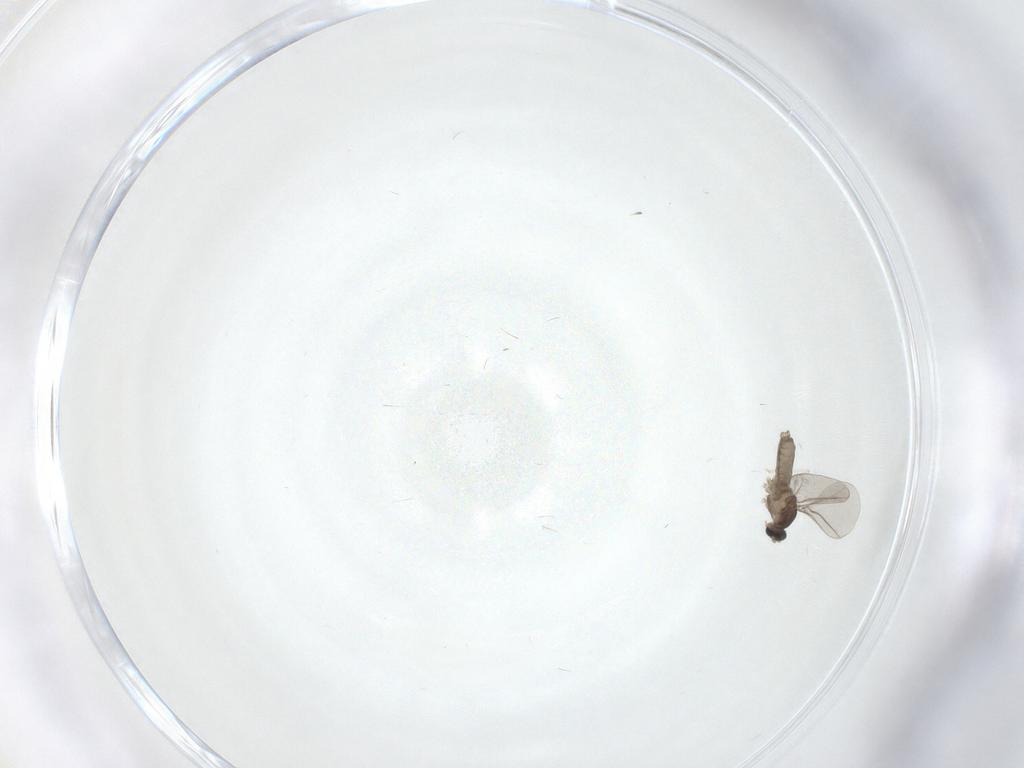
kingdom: Animalia
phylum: Arthropoda
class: Insecta
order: Diptera
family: Cecidomyiidae
